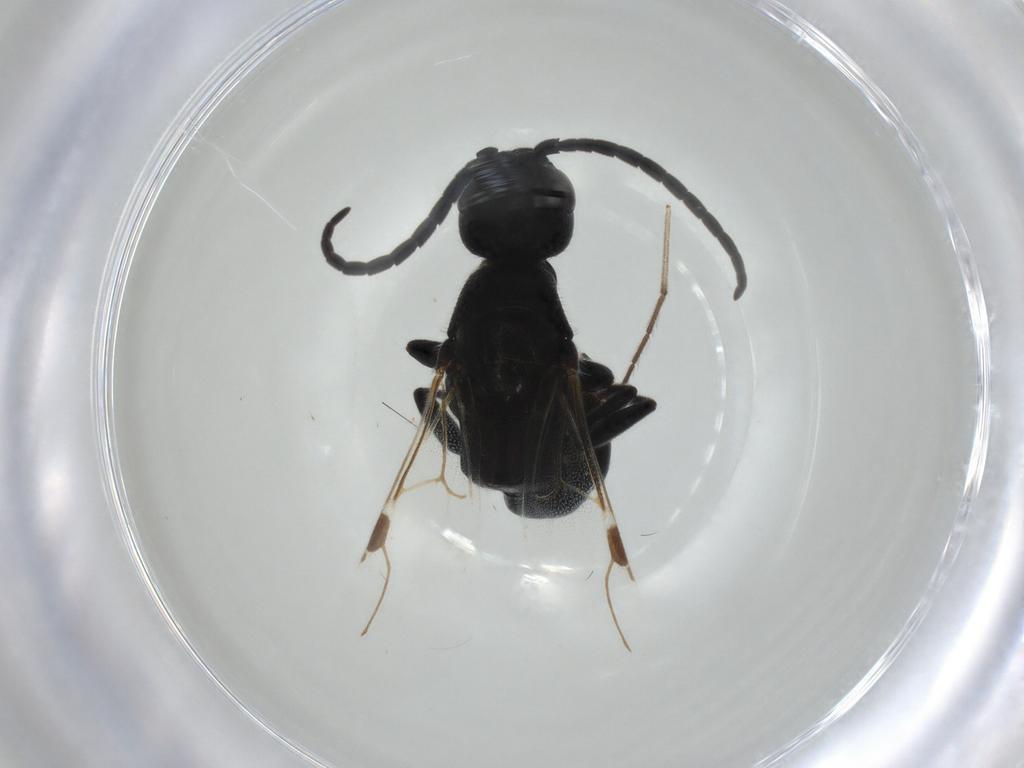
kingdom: Animalia
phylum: Arthropoda
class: Insecta
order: Hymenoptera
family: Bethylidae
